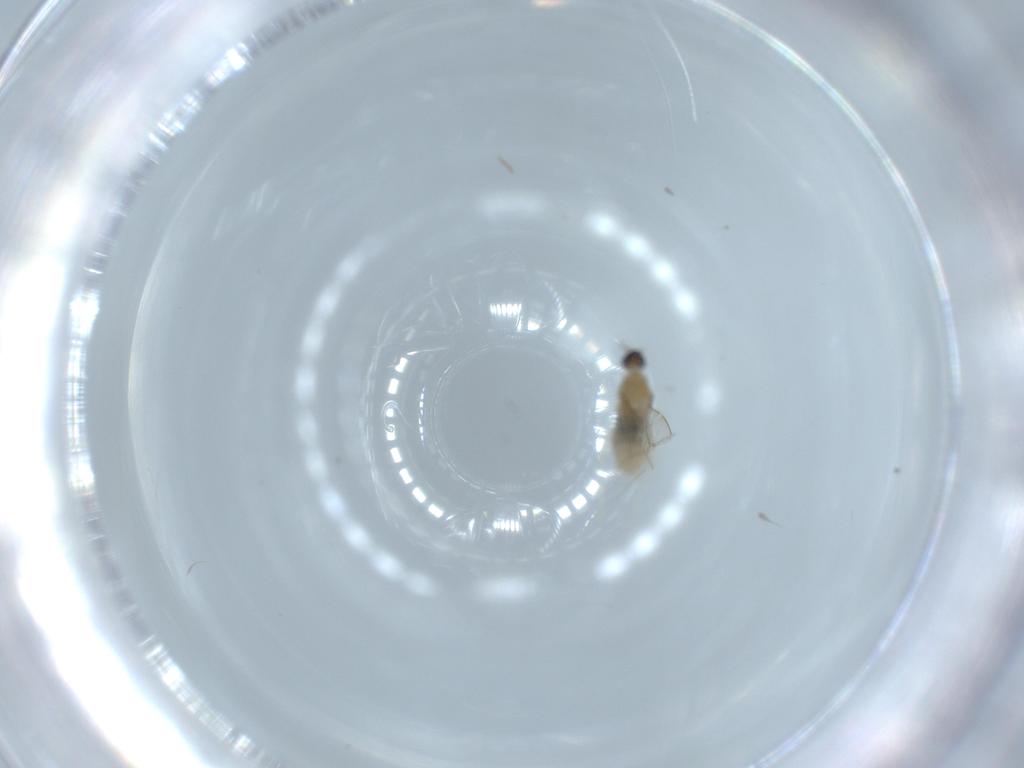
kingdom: Animalia
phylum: Arthropoda
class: Insecta
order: Diptera
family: Cecidomyiidae
